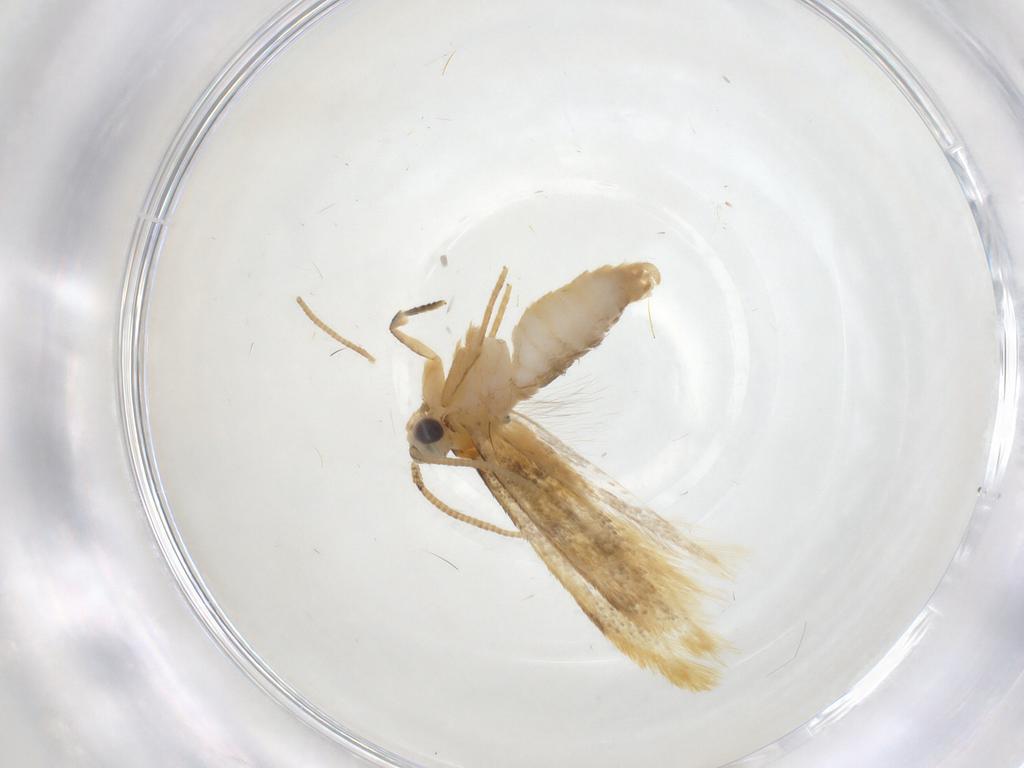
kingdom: Animalia
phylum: Arthropoda
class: Insecta
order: Lepidoptera
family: Nepticulidae
